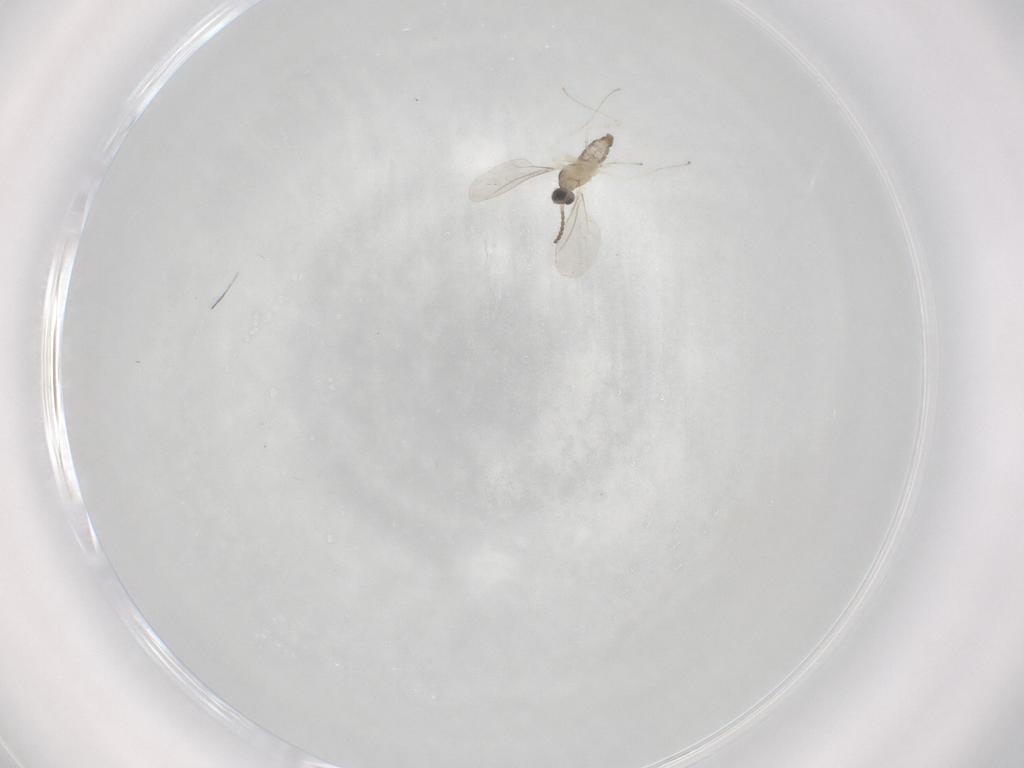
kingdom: Animalia
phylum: Arthropoda
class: Insecta
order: Diptera
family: Cecidomyiidae
